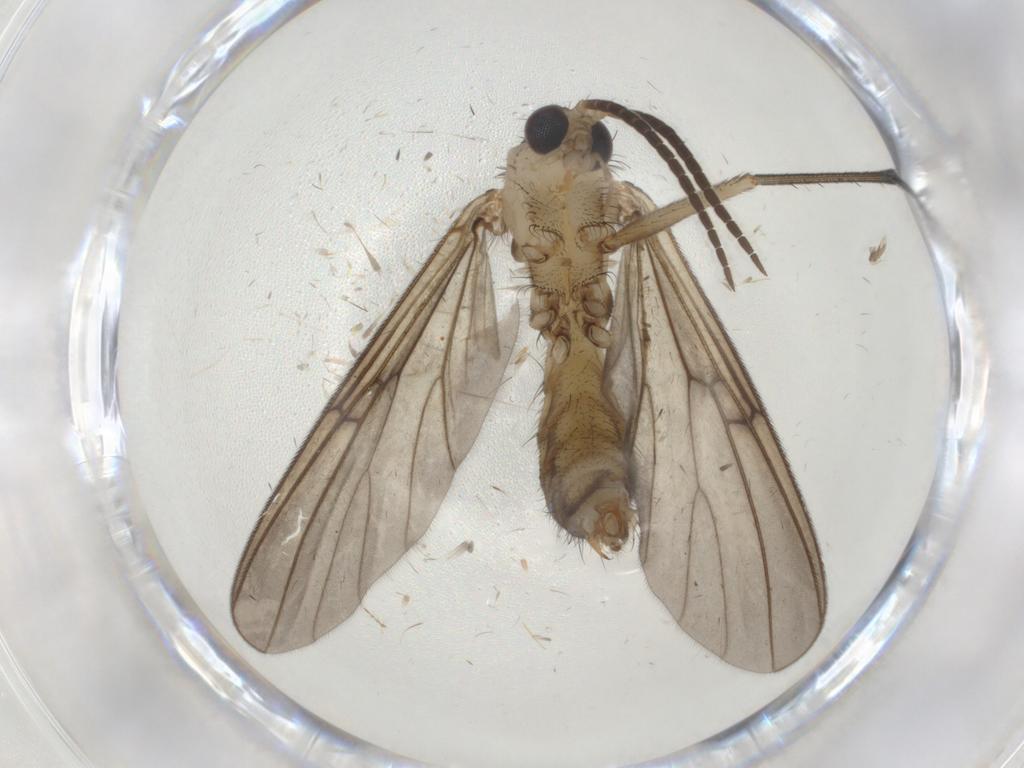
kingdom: Animalia
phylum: Arthropoda
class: Insecta
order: Diptera
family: Mycetophilidae
